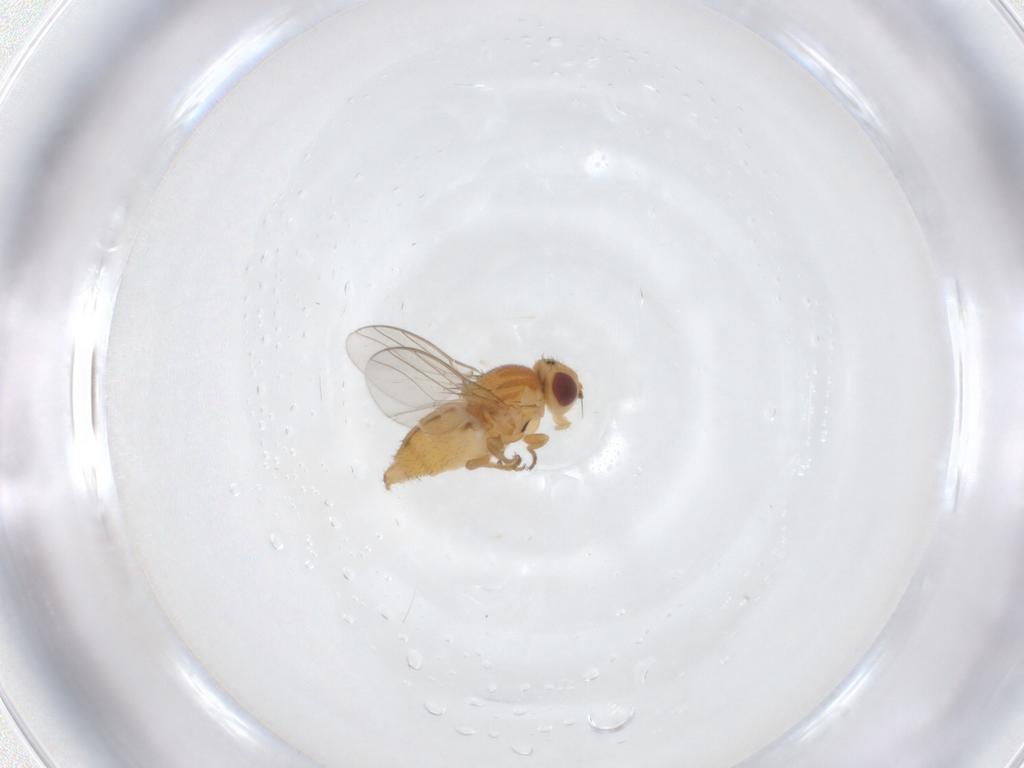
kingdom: Animalia
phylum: Arthropoda
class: Insecta
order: Diptera
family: Chloropidae
